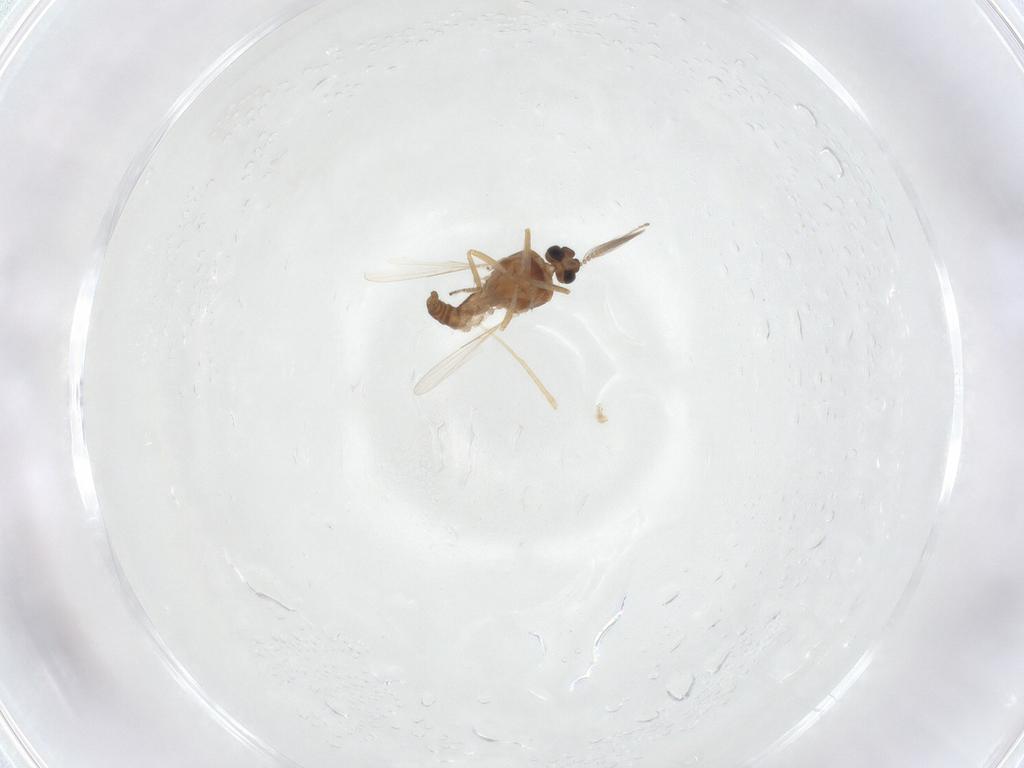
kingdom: Animalia
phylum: Arthropoda
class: Insecta
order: Diptera
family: Ceratopogonidae
